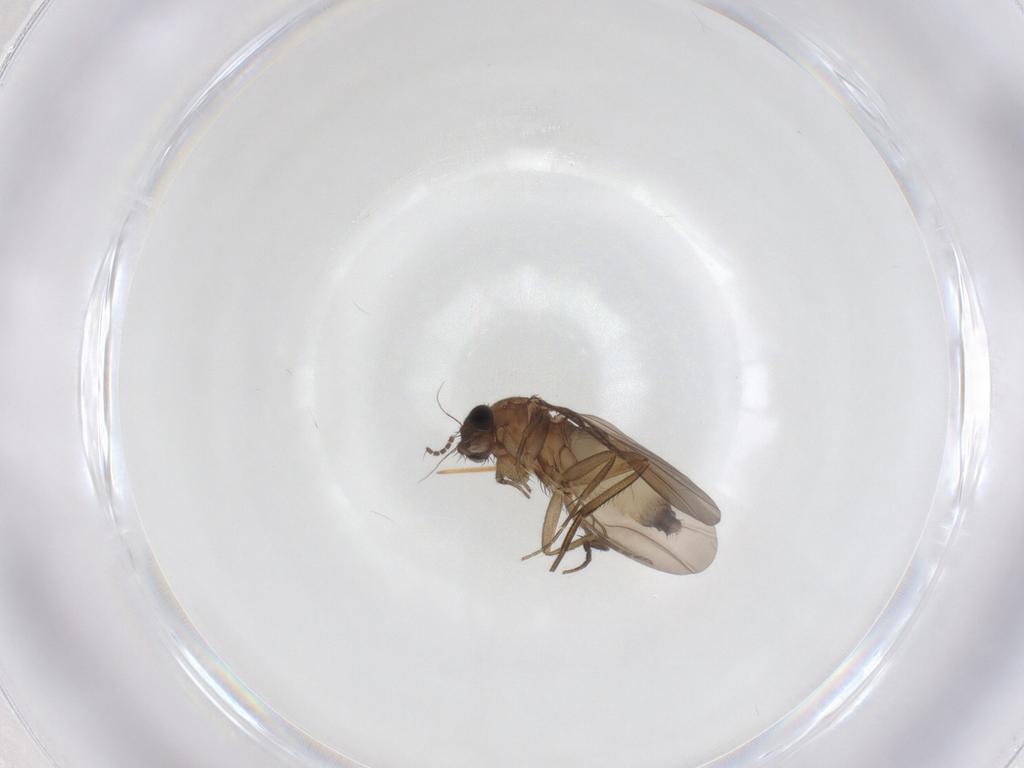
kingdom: Animalia
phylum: Arthropoda
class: Insecta
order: Diptera
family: Phoridae
